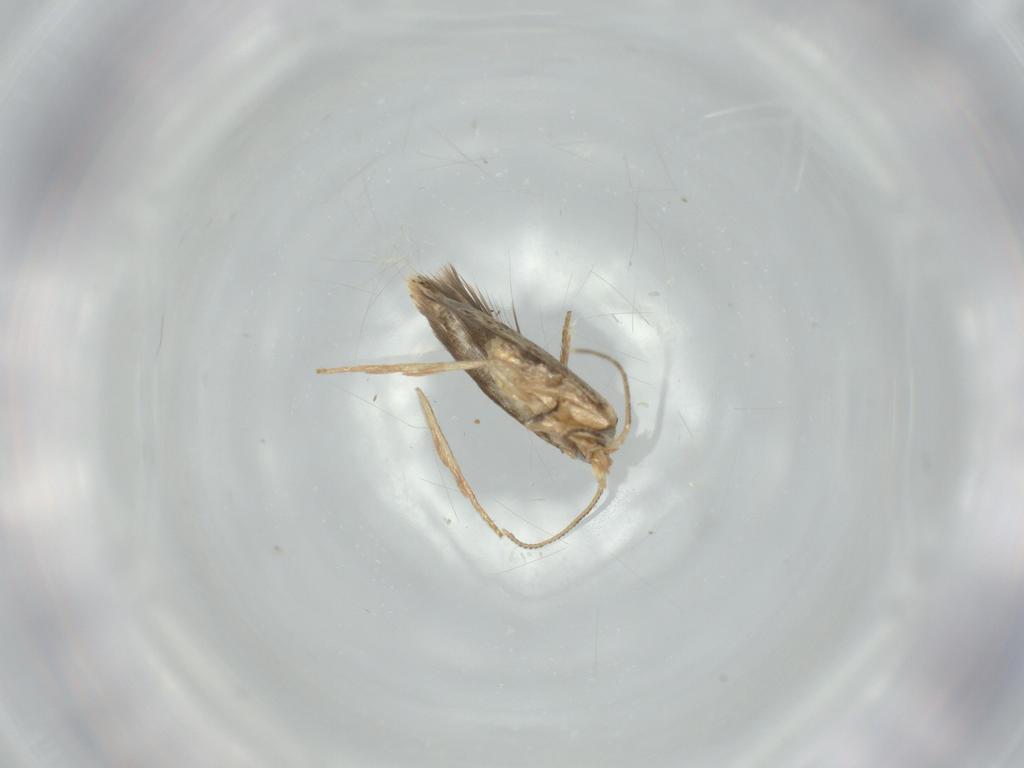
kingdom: Animalia
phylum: Arthropoda
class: Insecta
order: Lepidoptera
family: Nepticulidae
